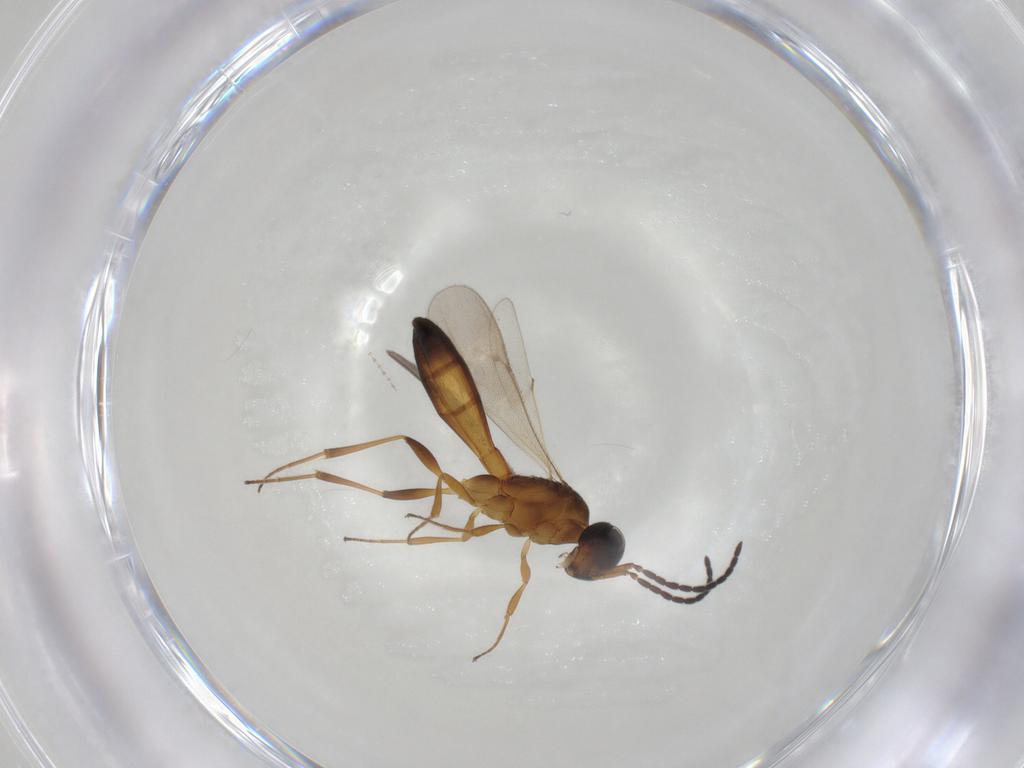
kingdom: Animalia
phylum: Arthropoda
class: Insecta
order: Hymenoptera
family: Scelionidae
